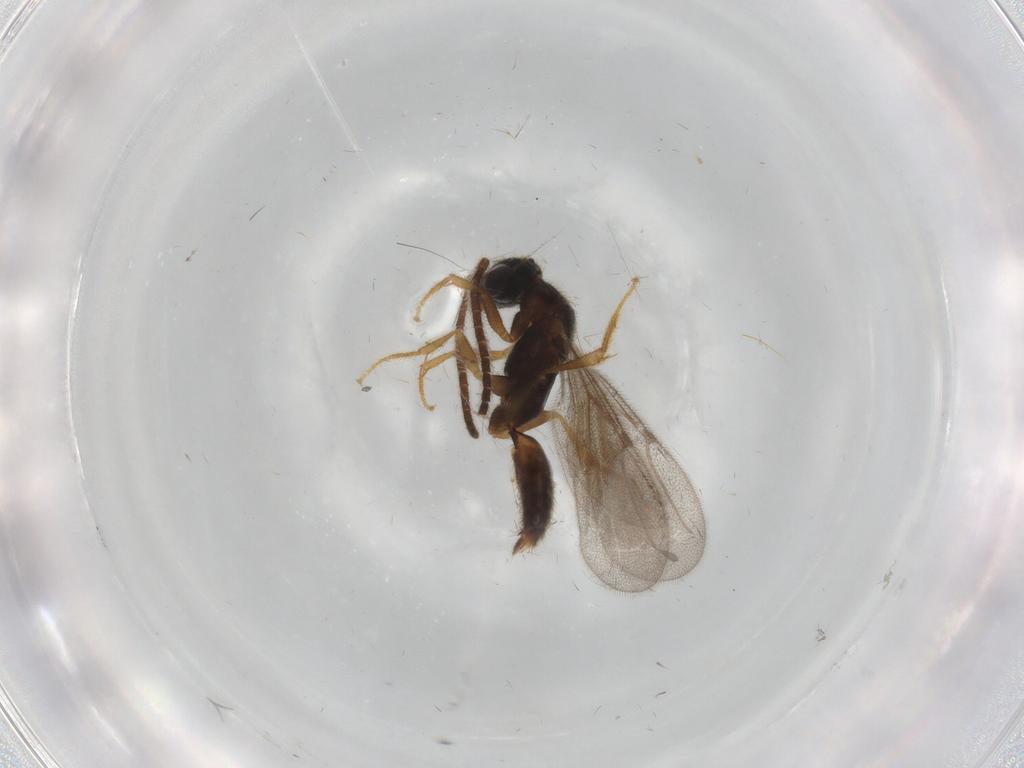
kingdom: Animalia
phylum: Arthropoda
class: Insecta
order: Hymenoptera
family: Bethylidae
